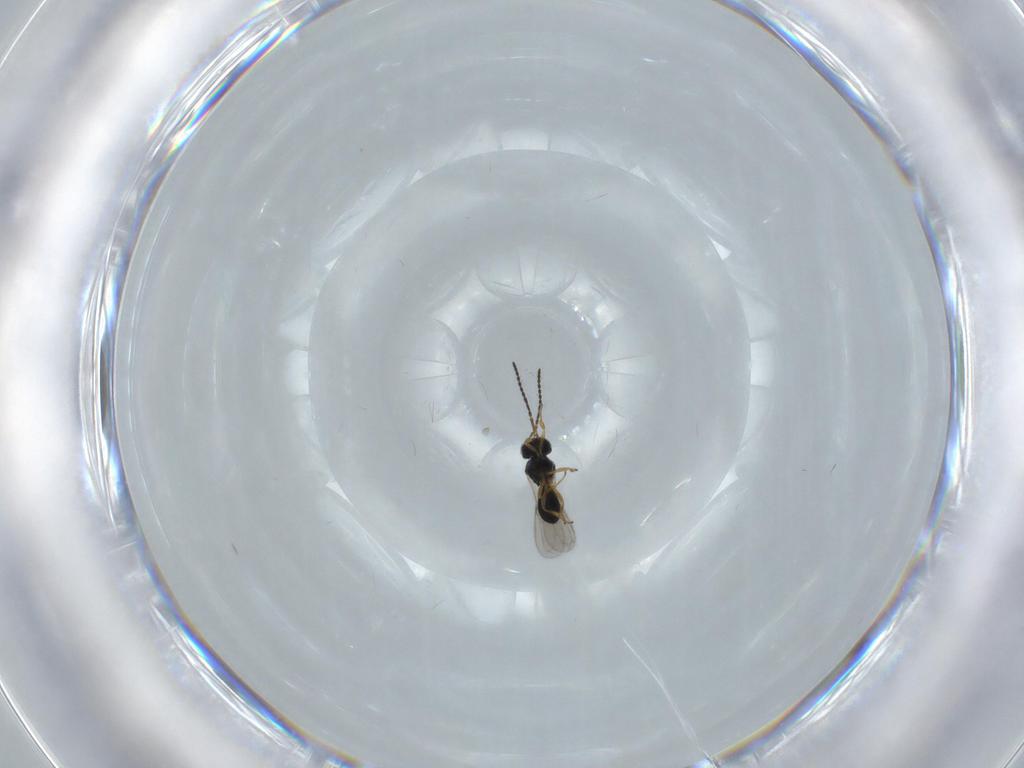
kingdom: Animalia
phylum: Arthropoda
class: Insecta
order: Hymenoptera
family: Scelionidae
